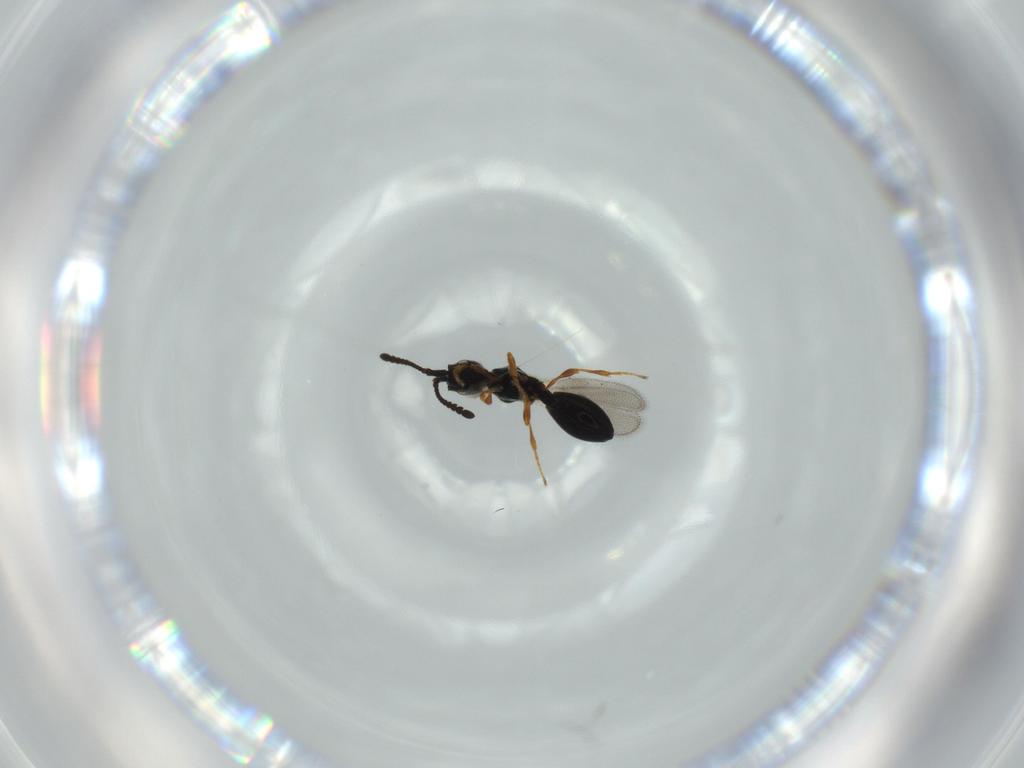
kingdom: Animalia
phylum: Arthropoda
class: Insecta
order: Hymenoptera
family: Diapriidae
